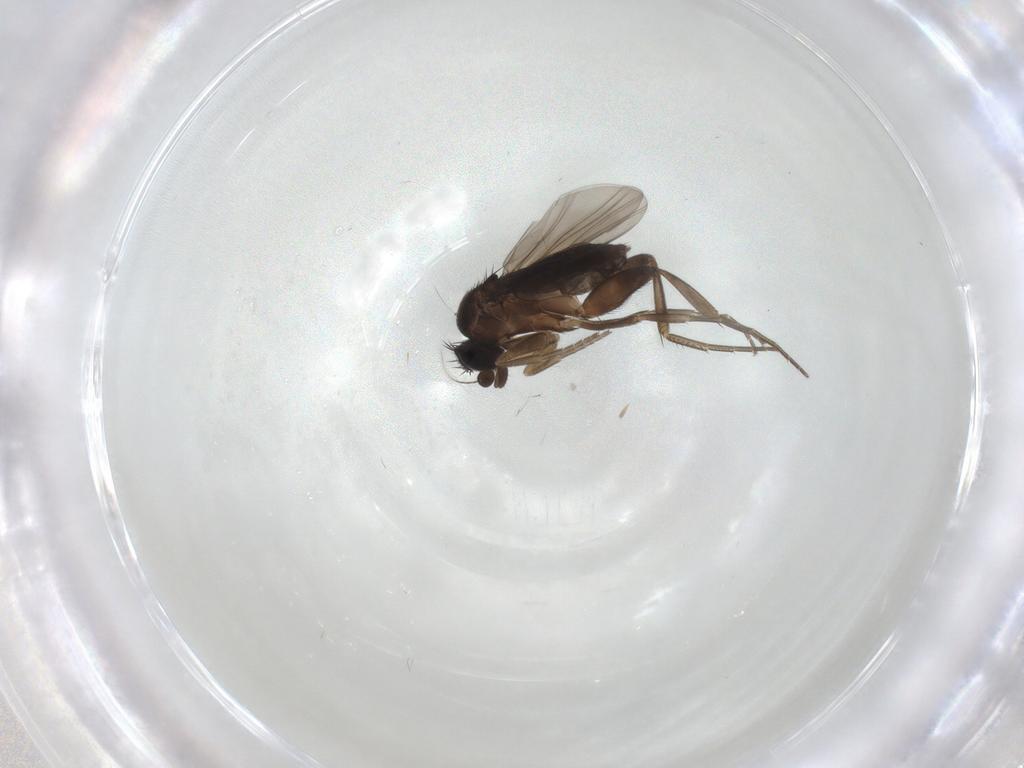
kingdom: Animalia
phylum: Arthropoda
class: Insecta
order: Diptera
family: Phoridae
